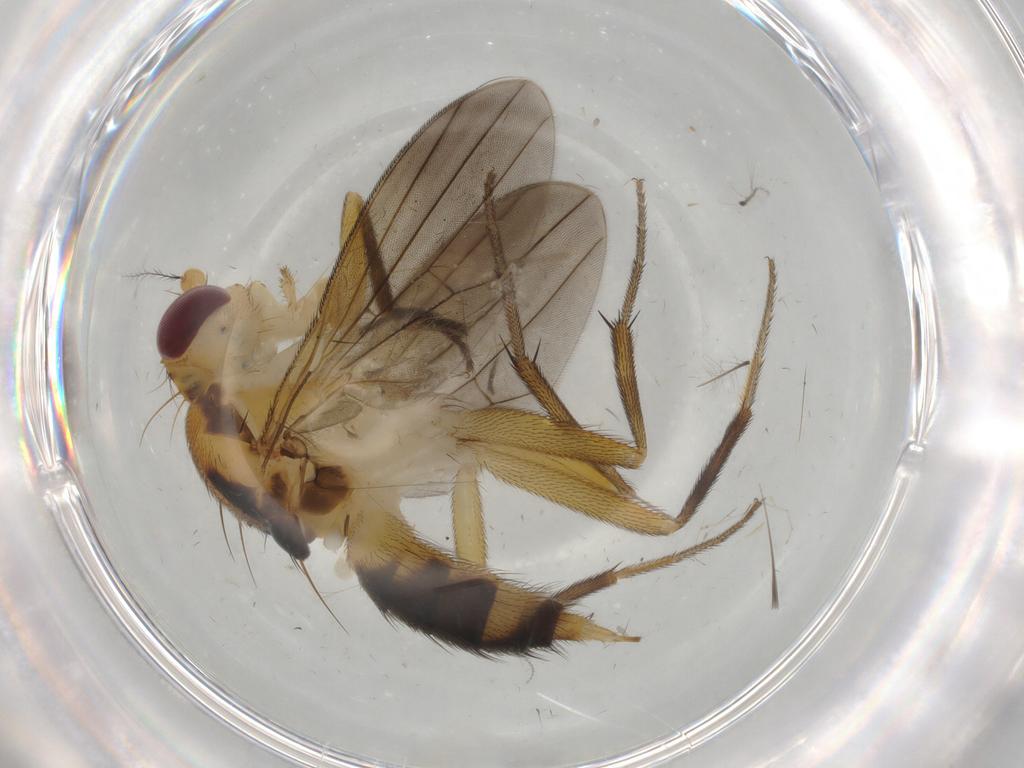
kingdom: Animalia
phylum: Arthropoda
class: Insecta
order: Diptera
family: Clusiidae
